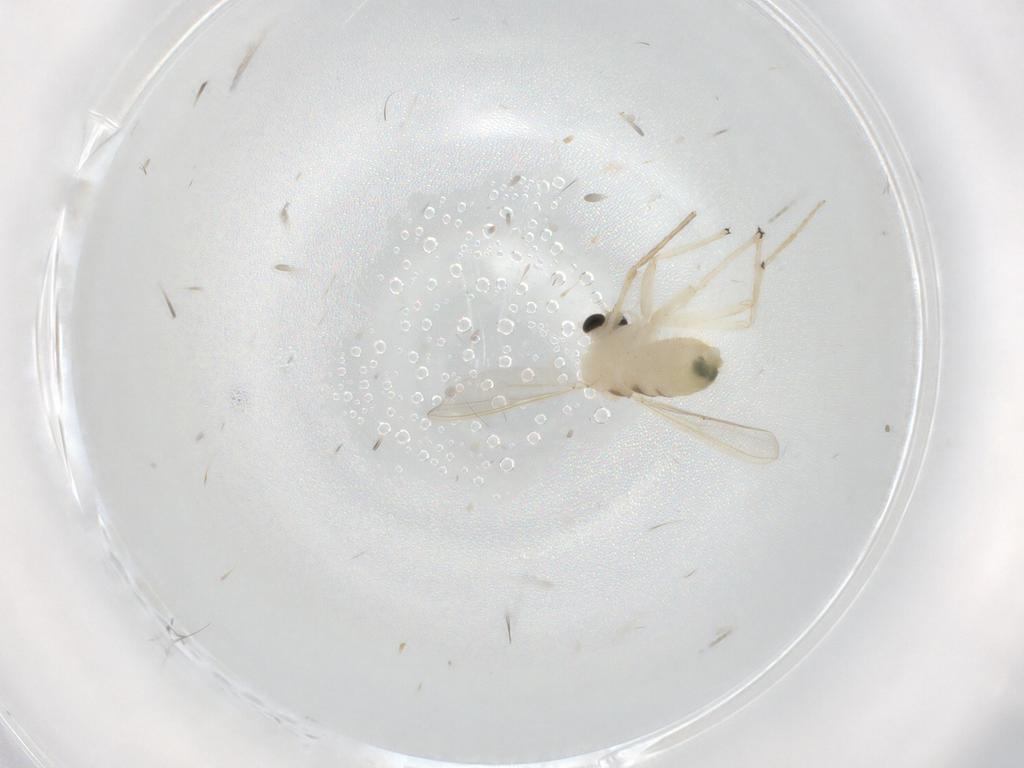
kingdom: Animalia
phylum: Arthropoda
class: Insecta
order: Diptera
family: Chironomidae
